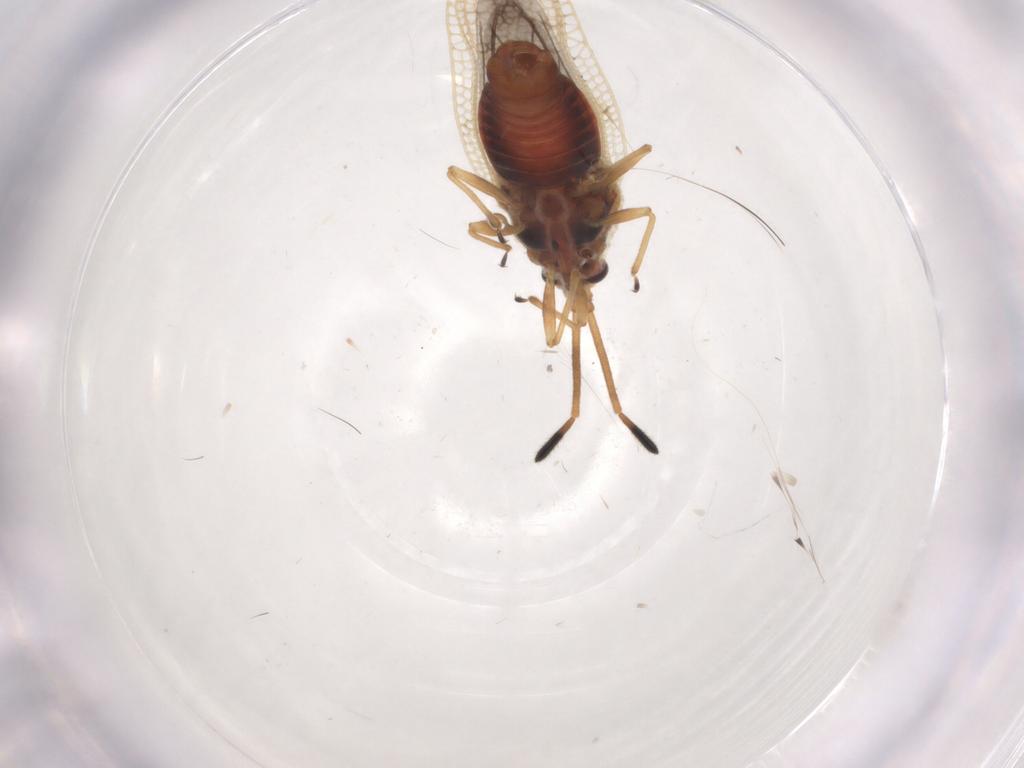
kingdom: Animalia
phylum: Arthropoda
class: Insecta
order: Hemiptera
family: Tingidae
